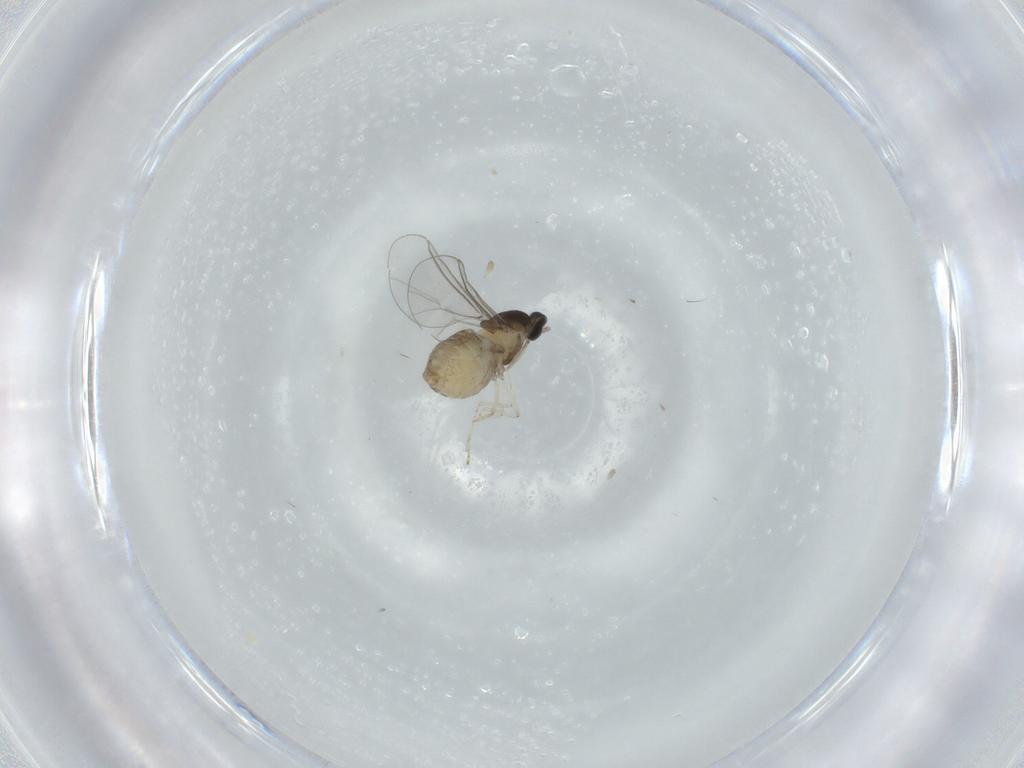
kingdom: Animalia
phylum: Arthropoda
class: Insecta
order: Diptera
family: Cecidomyiidae
